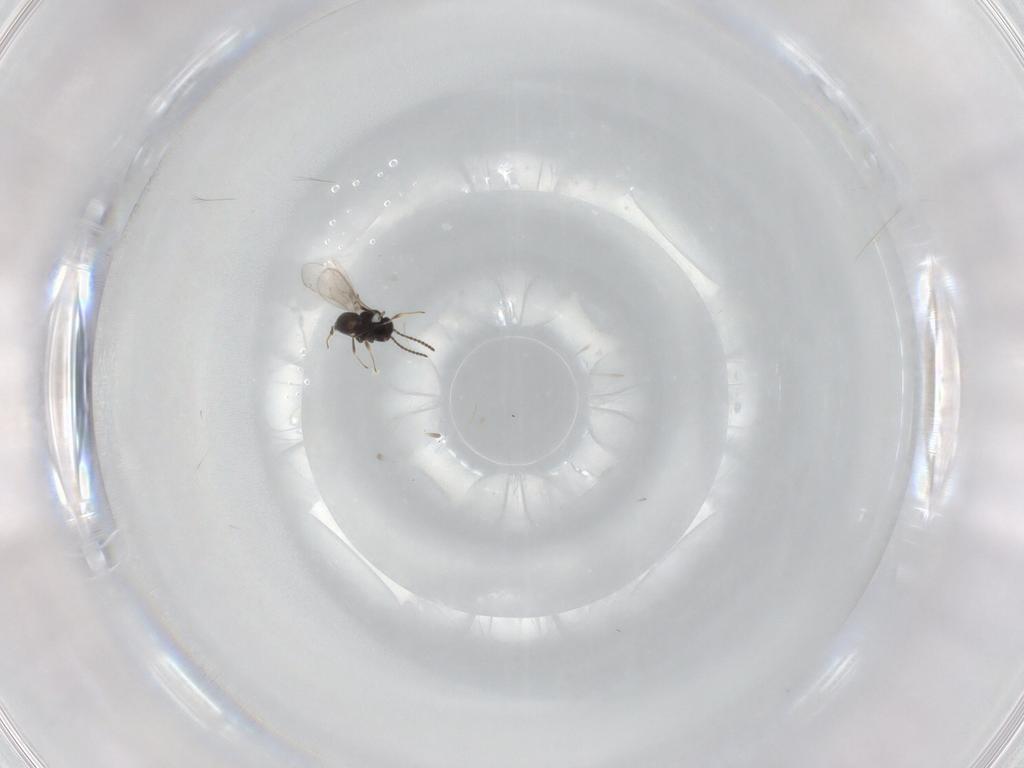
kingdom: Animalia
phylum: Arthropoda
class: Insecta
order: Hymenoptera
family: Scelionidae
